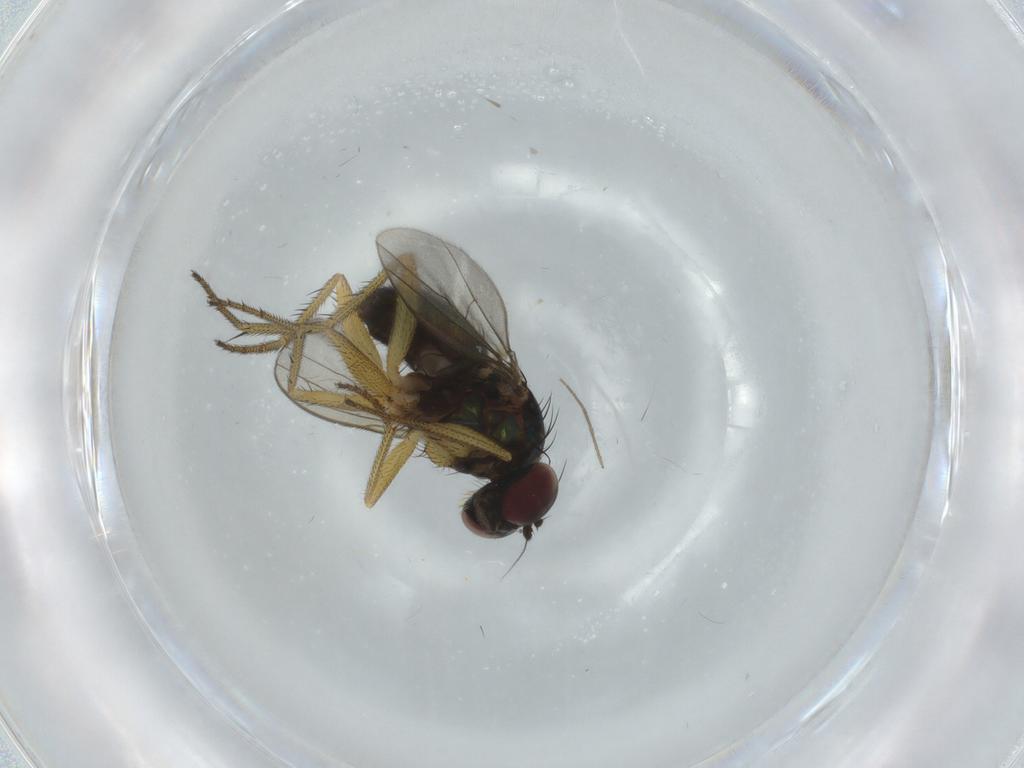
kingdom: Animalia
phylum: Arthropoda
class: Insecta
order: Diptera
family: Dolichopodidae
